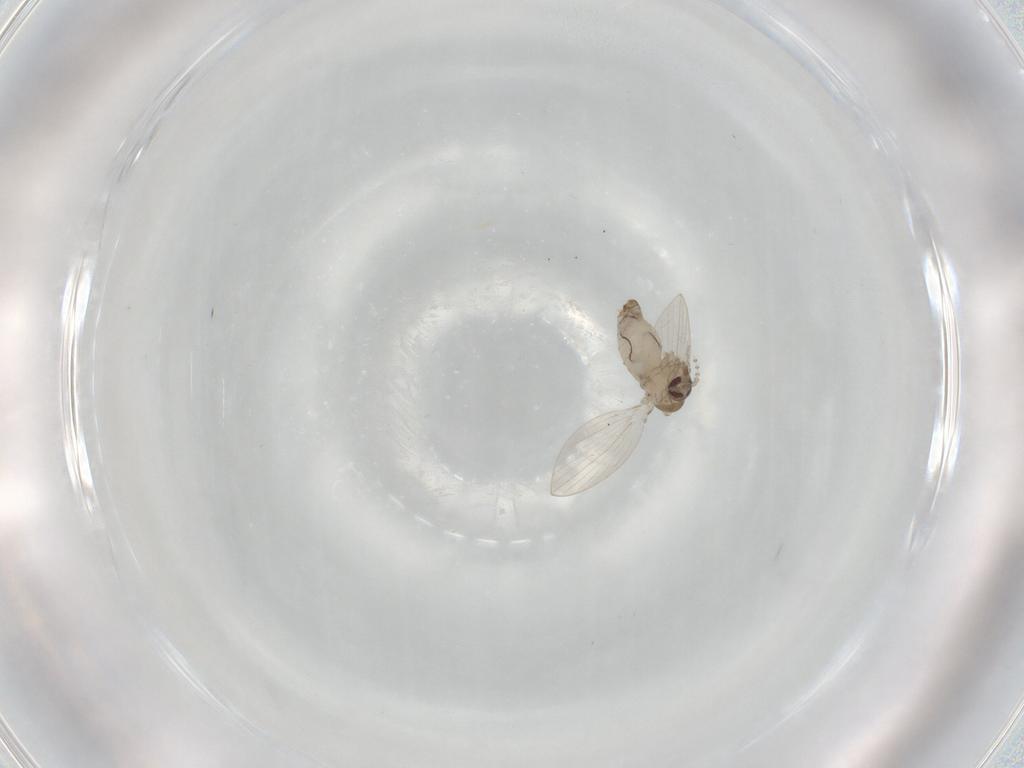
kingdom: Animalia
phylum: Arthropoda
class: Insecta
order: Diptera
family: Psychodidae
